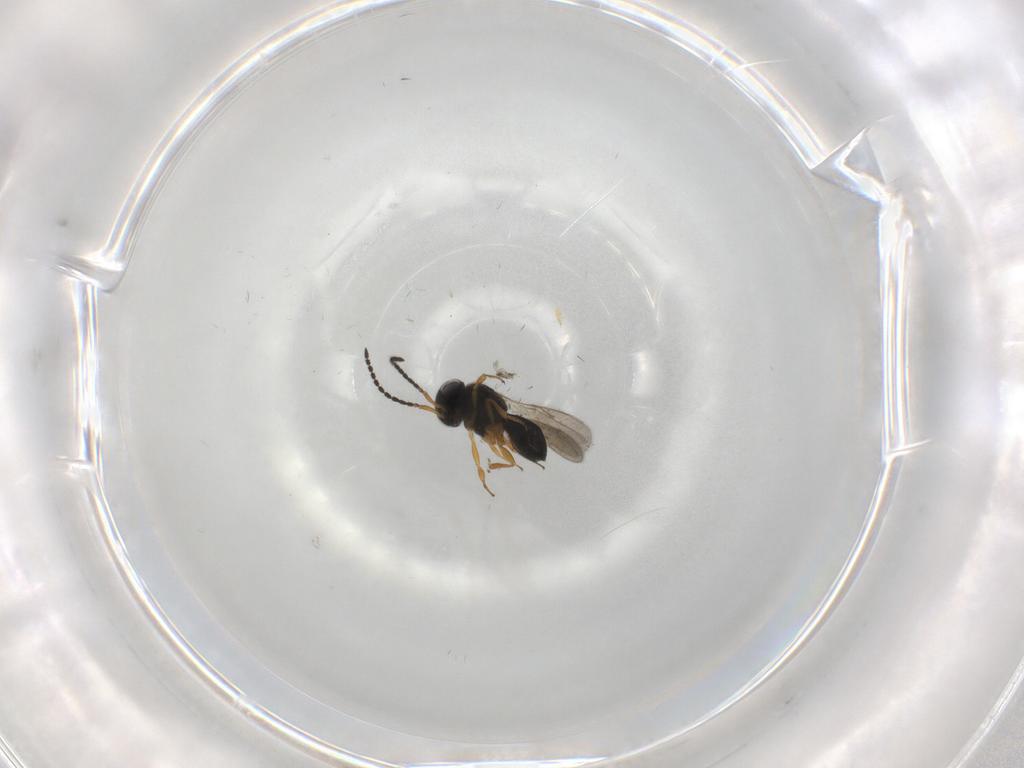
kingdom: Animalia
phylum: Arthropoda
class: Insecta
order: Hymenoptera
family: Scelionidae
